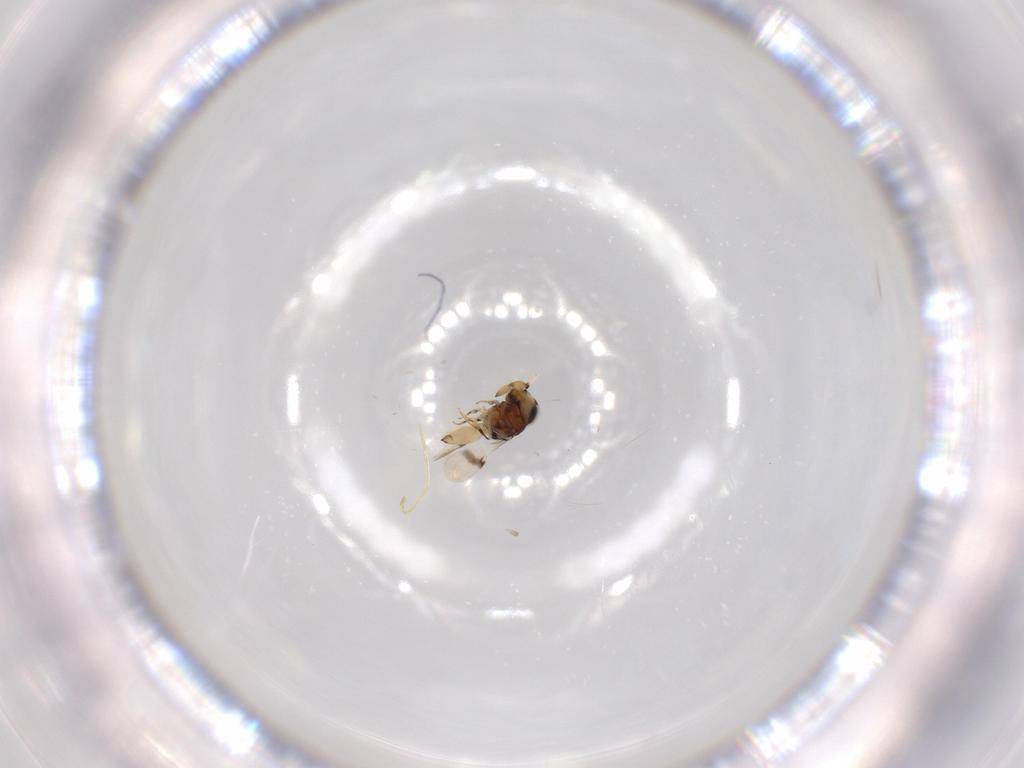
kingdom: Animalia
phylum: Arthropoda
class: Insecta
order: Hymenoptera
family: Scelionidae
